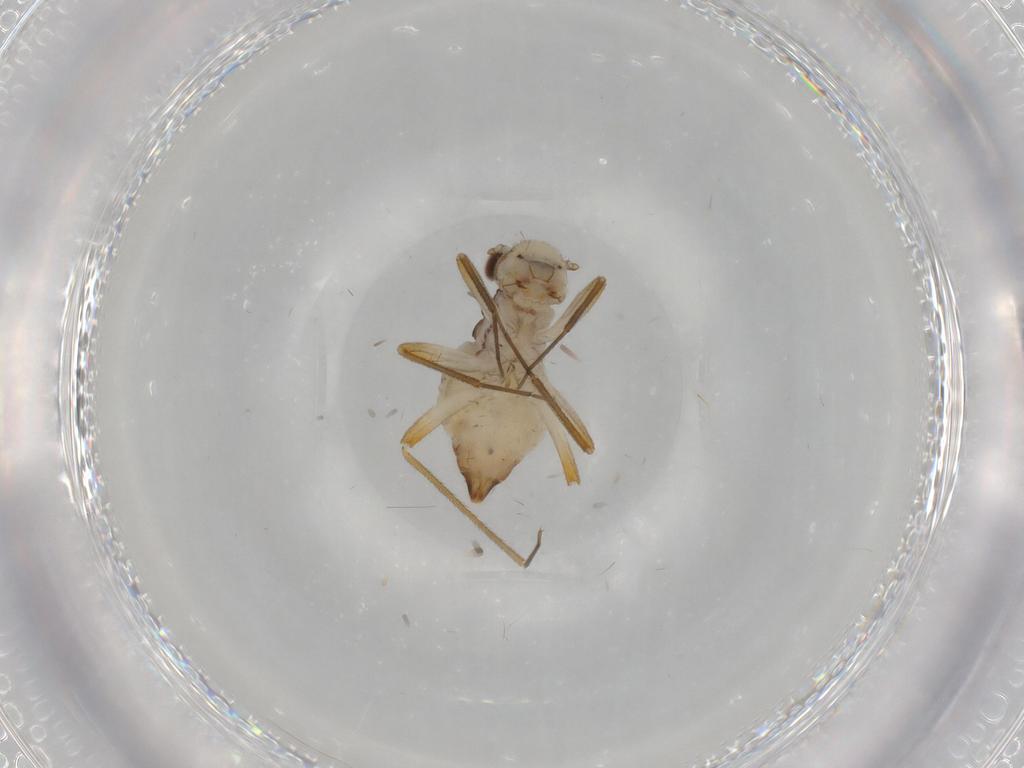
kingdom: Animalia
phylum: Arthropoda
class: Insecta
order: Psocodea
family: Mesopsocidae
